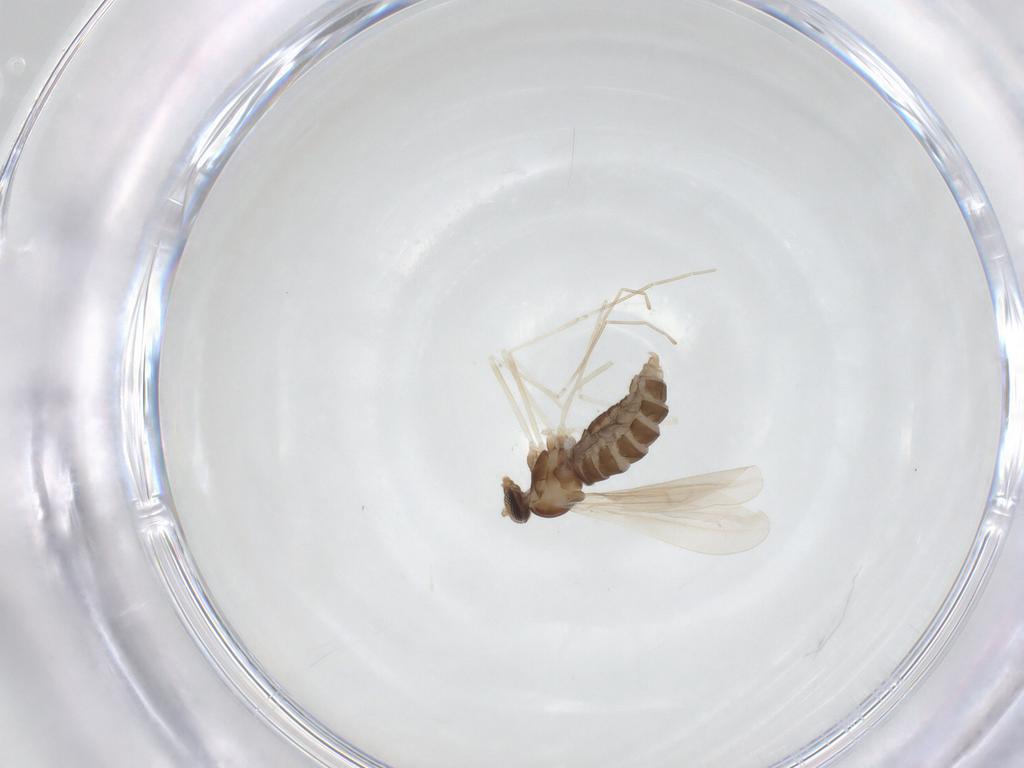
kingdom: Animalia
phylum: Arthropoda
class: Insecta
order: Diptera
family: Cecidomyiidae
